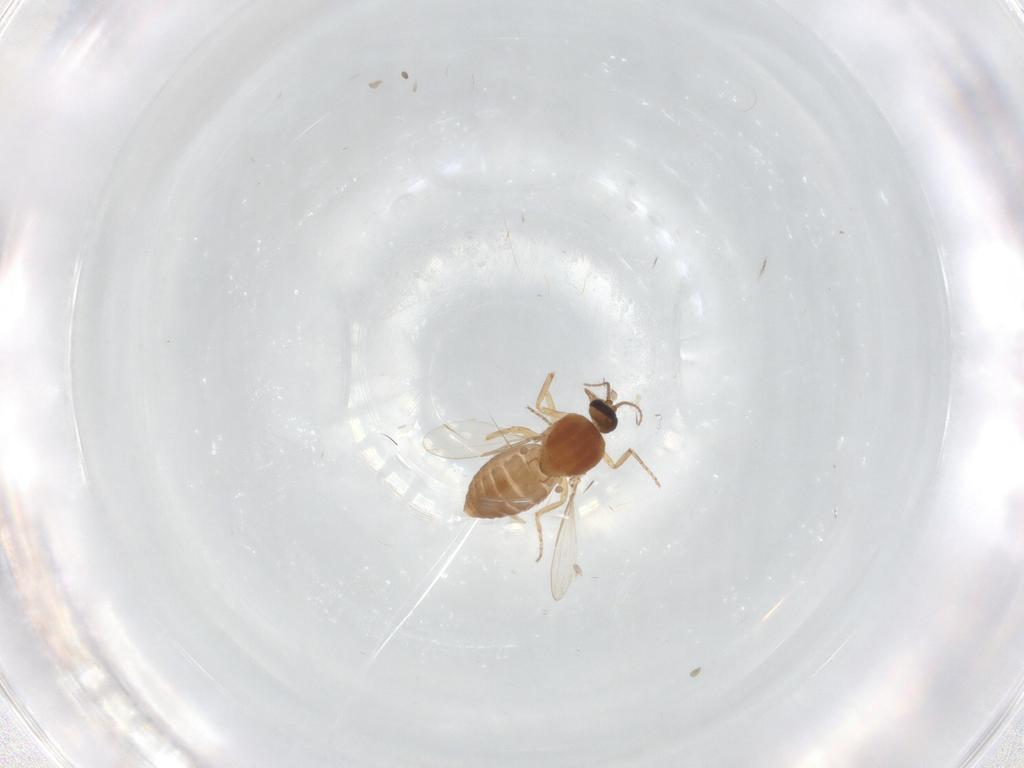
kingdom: Animalia
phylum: Arthropoda
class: Insecta
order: Diptera
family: Ceratopogonidae
